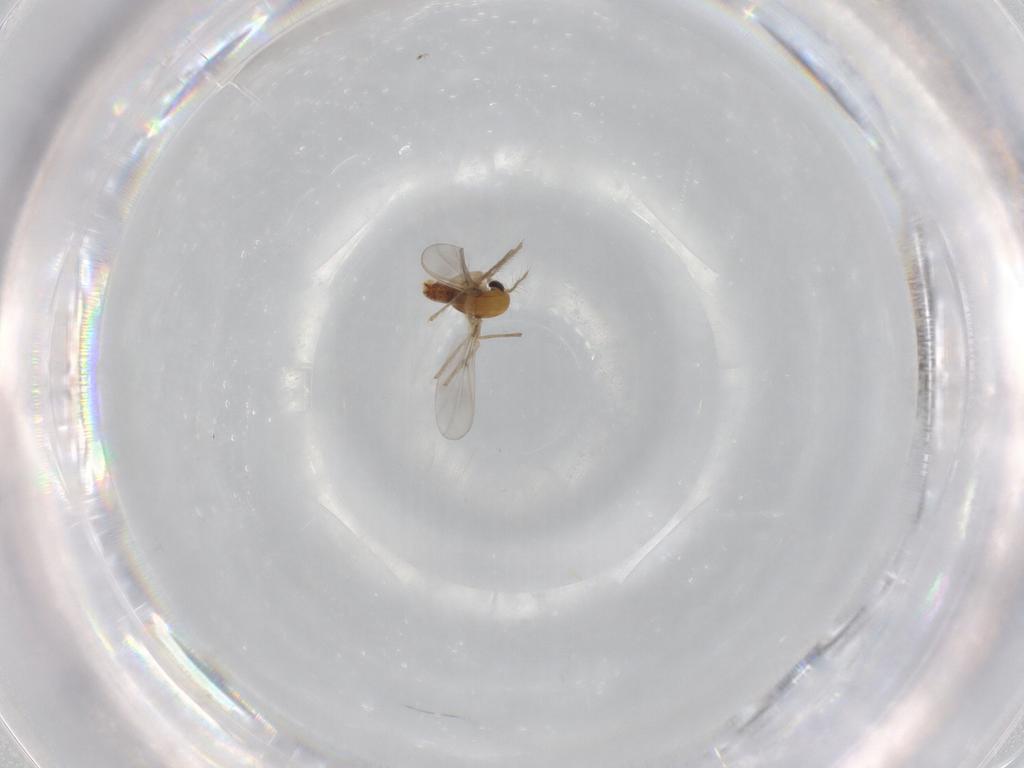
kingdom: Animalia
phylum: Arthropoda
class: Insecta
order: Diptera
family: Chironomidae
